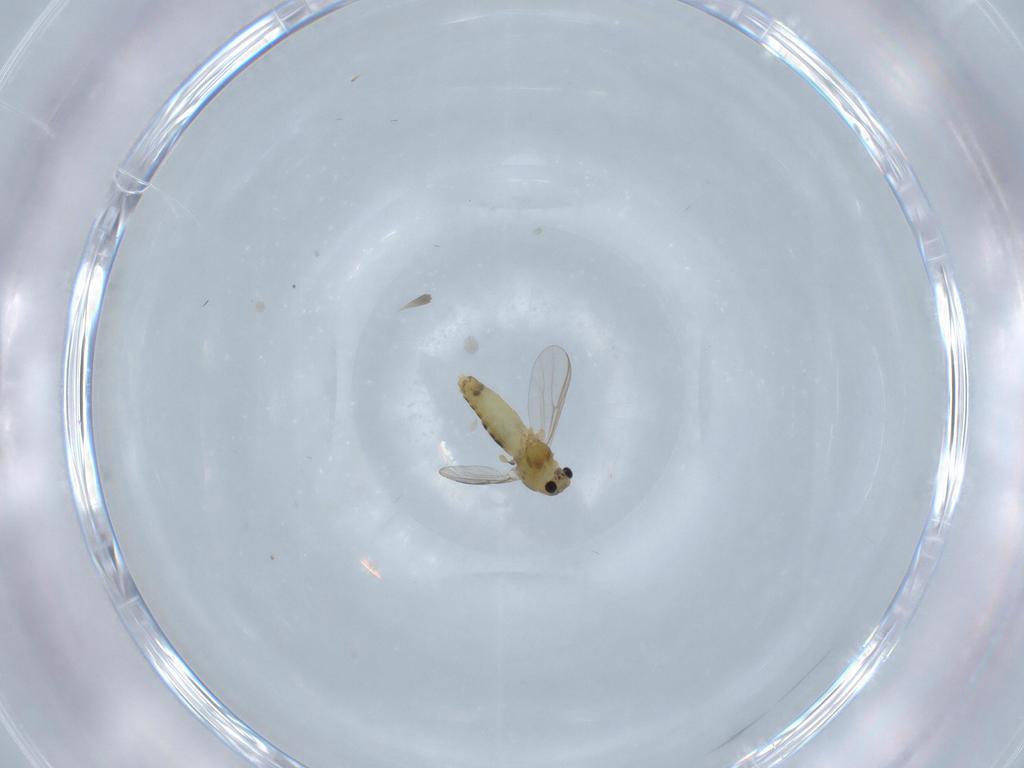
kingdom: Animalia
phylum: Arthropoda
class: Insecta
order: Diptera
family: Chironomidae
